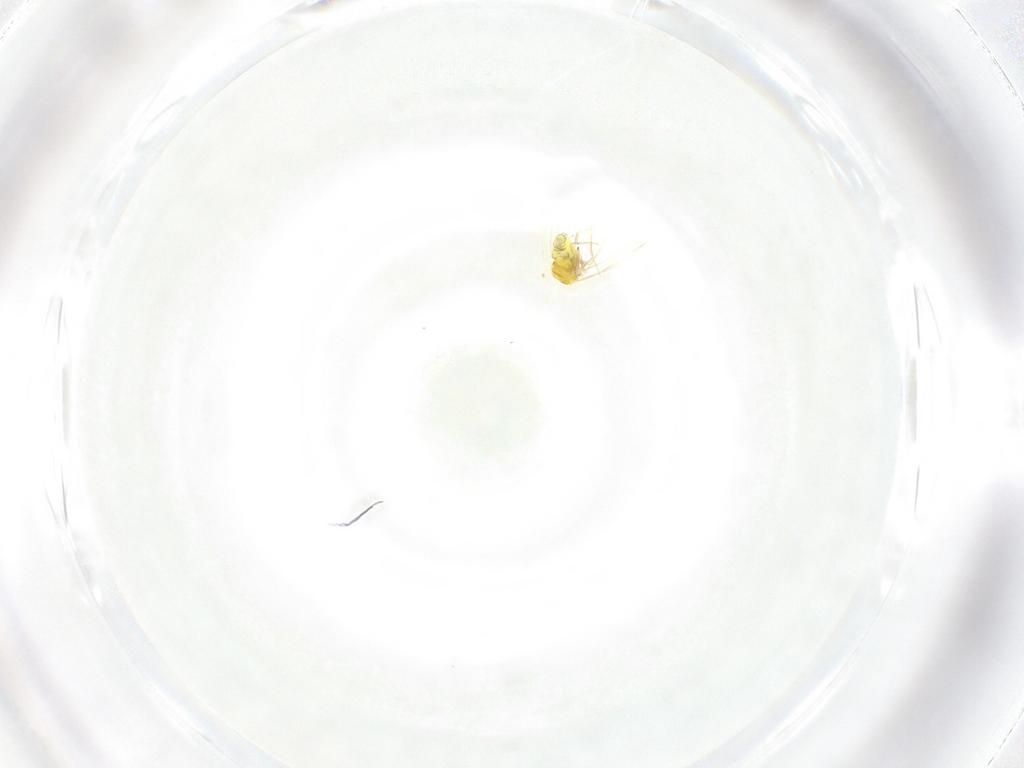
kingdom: Animalia
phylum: Arthropoda
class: Insecta
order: Hemiptera
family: Aleyrodidae
